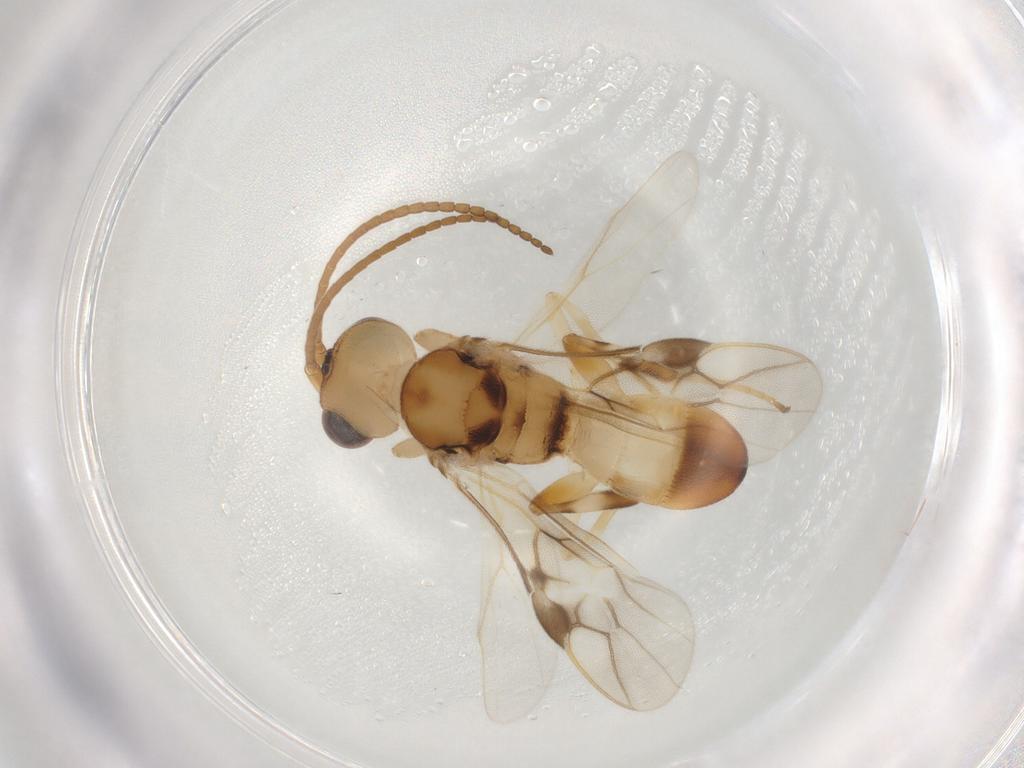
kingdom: Animalia
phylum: Arthropoda
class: Insecta
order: Hymenoptera
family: Braconidae
